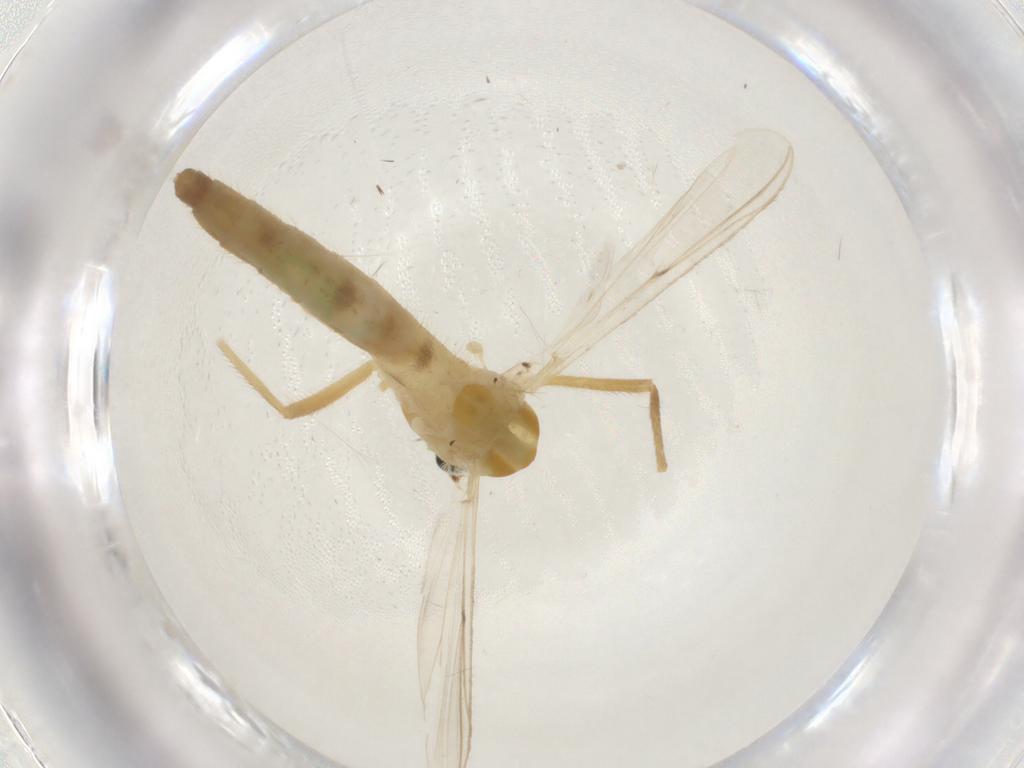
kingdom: Animalia
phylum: Arthropoda
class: Insecta
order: Diptera
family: Chironomidae
